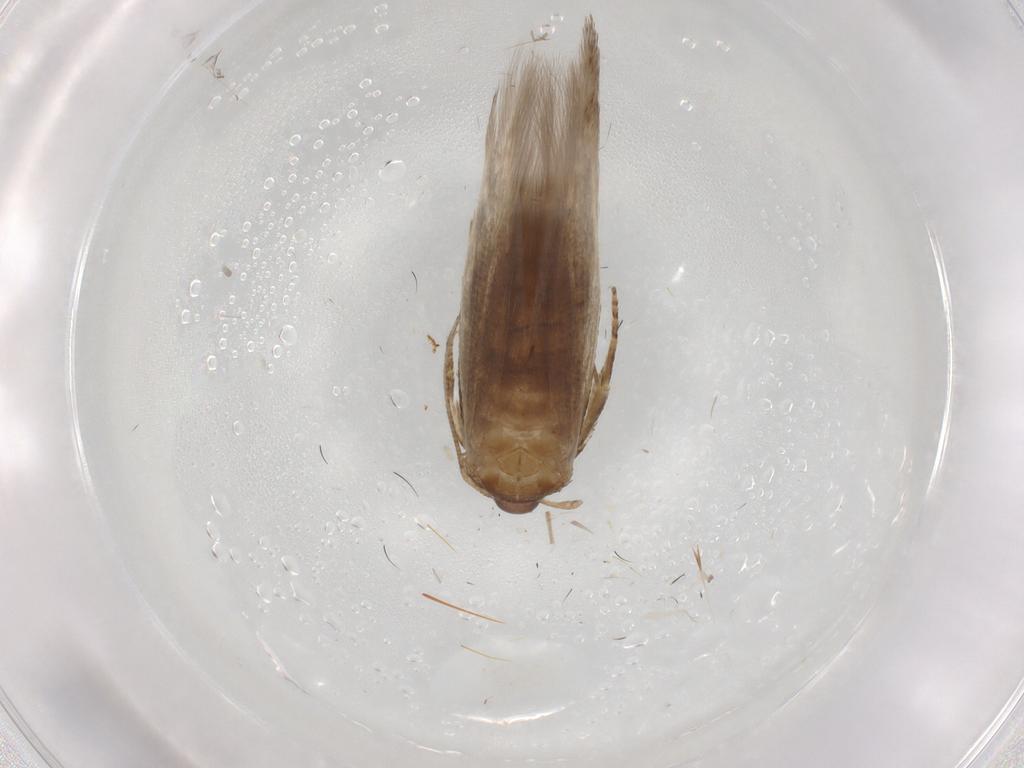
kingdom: Animalia
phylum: Arthropoda
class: Insecta
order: Lepidoptera
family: Cosmopterigidae
